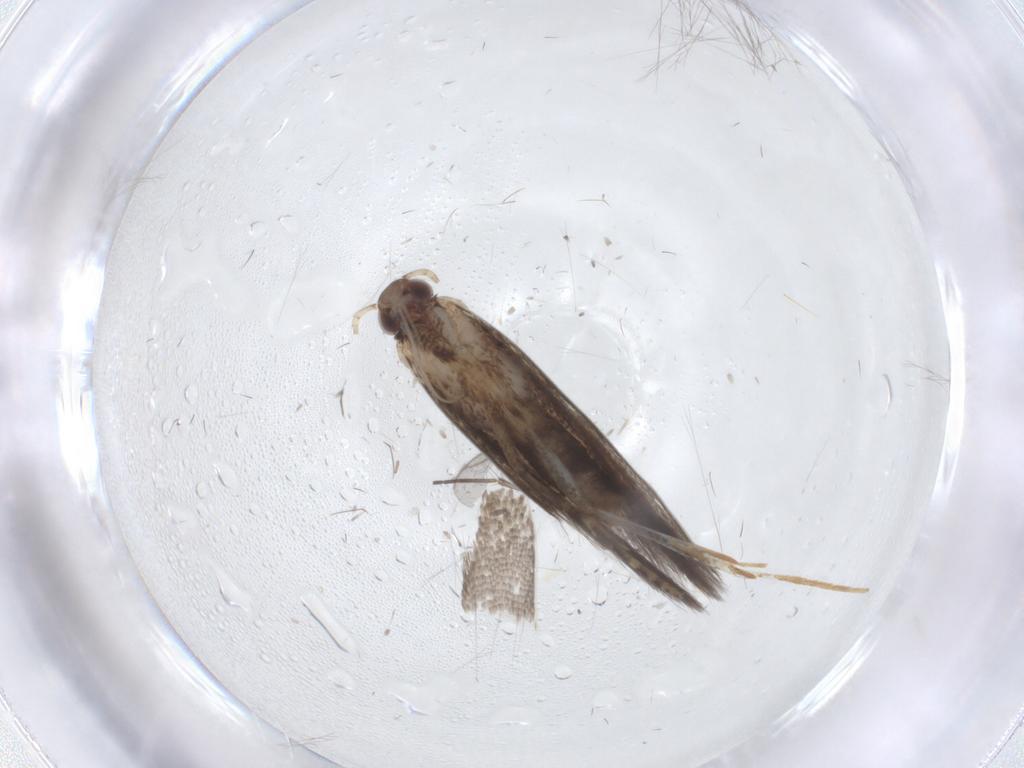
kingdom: Animalia
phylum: Arthropoda
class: Insecta
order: Lepidoptera
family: Gelechiidae
